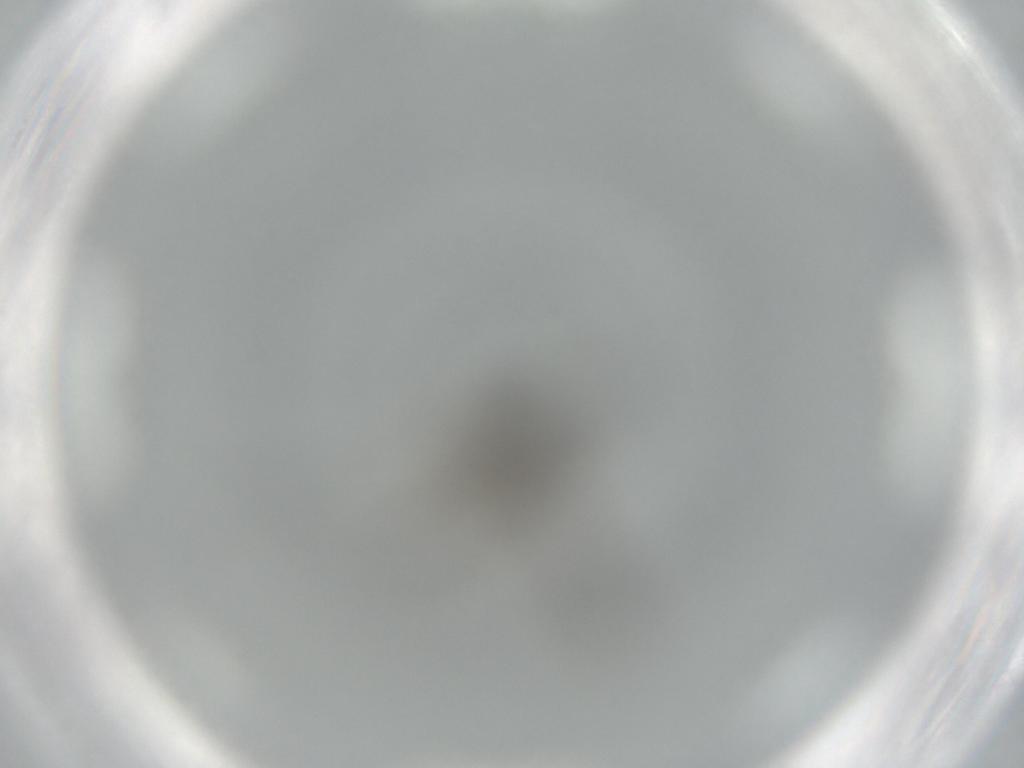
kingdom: Animalia
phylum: Arthropoda
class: Insecta
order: Diptera
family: Sciaridae
